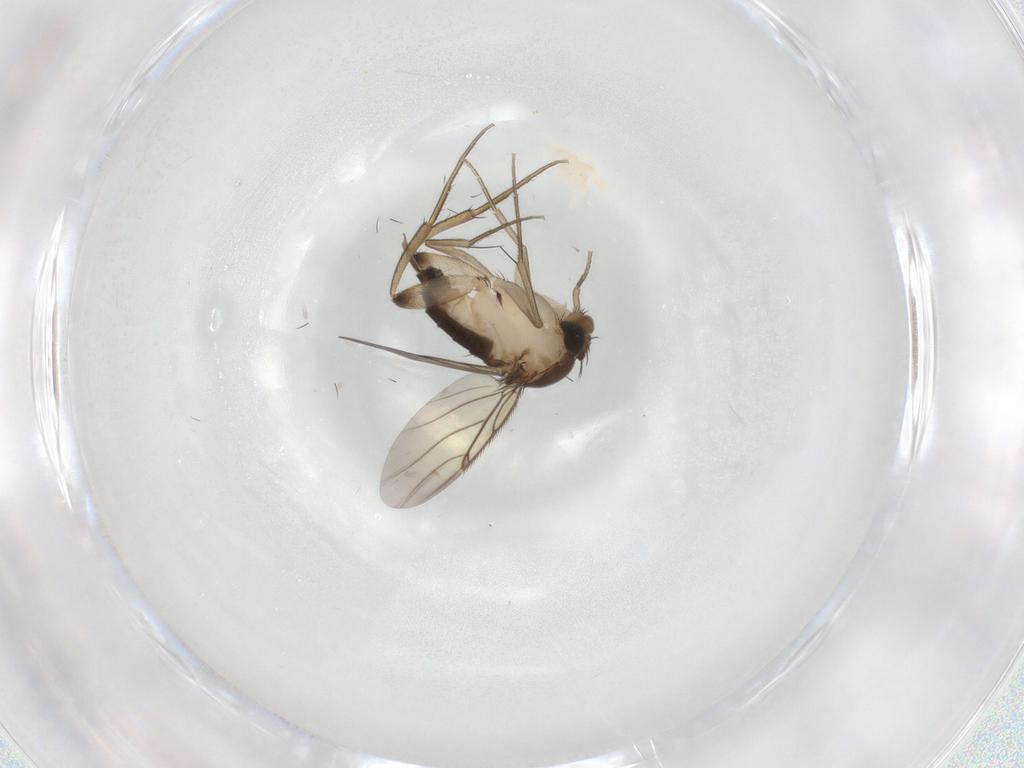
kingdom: Animalia
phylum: Arthropoda
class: Insecta
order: Diptera
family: Phoridae
